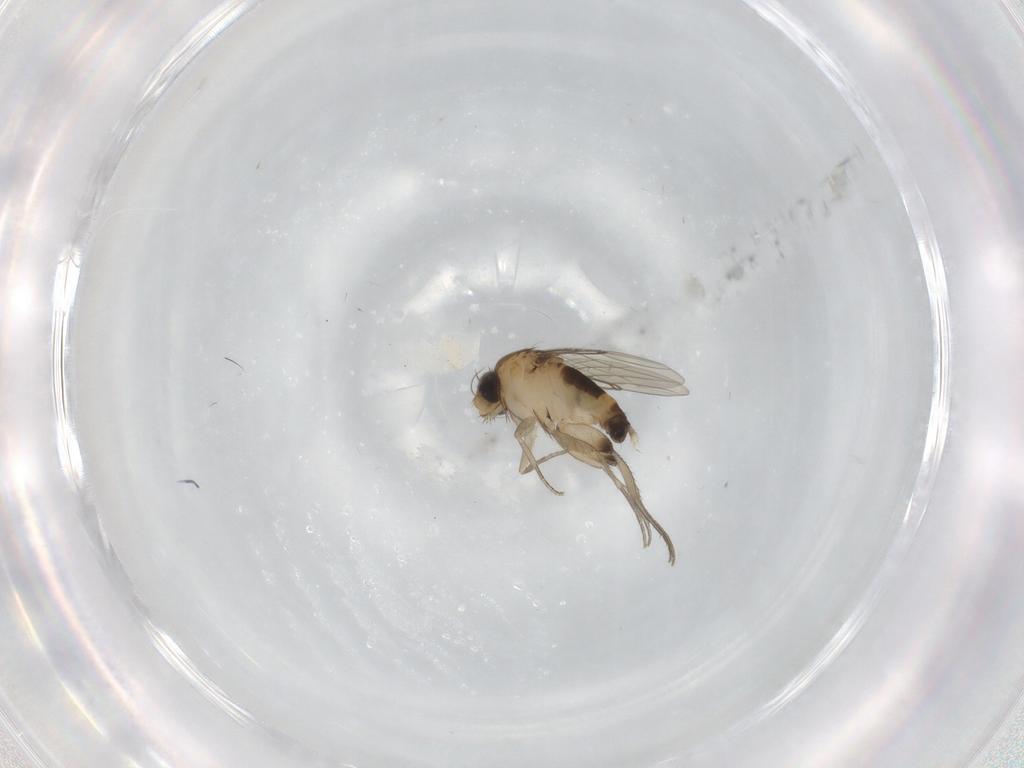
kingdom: Animalia
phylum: Arthropoda
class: Insecta
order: Diptera
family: Phoridae
